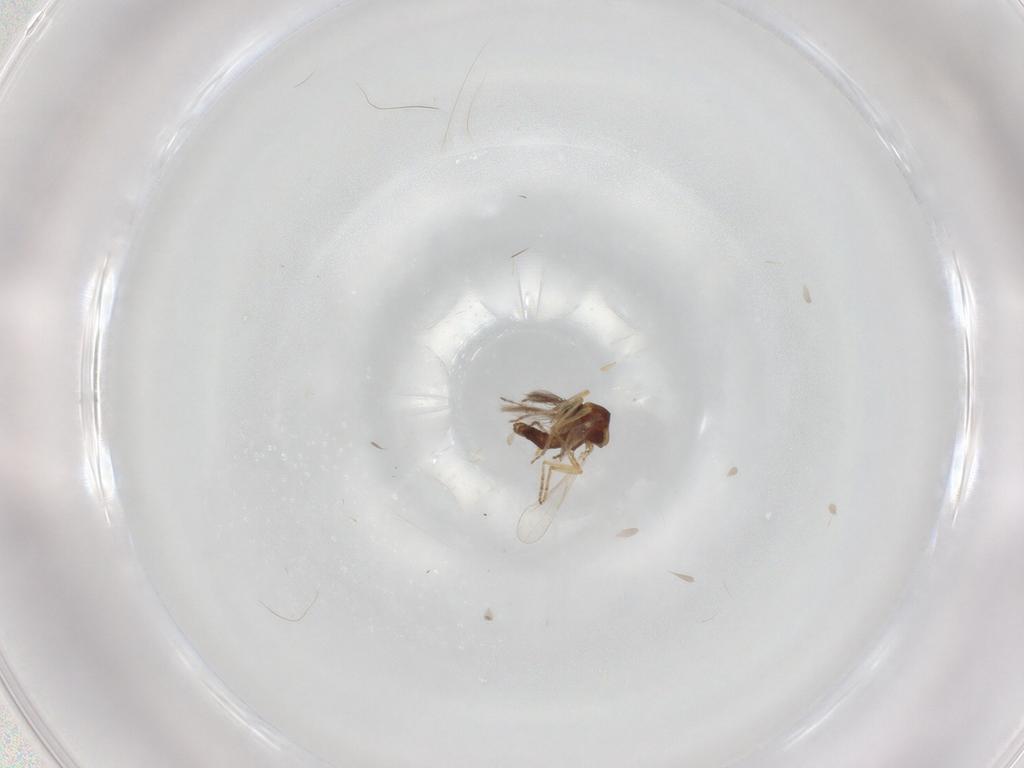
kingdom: Animalia
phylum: Arthropoda
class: Insecta
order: Diptera
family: Ceratopogonidae
